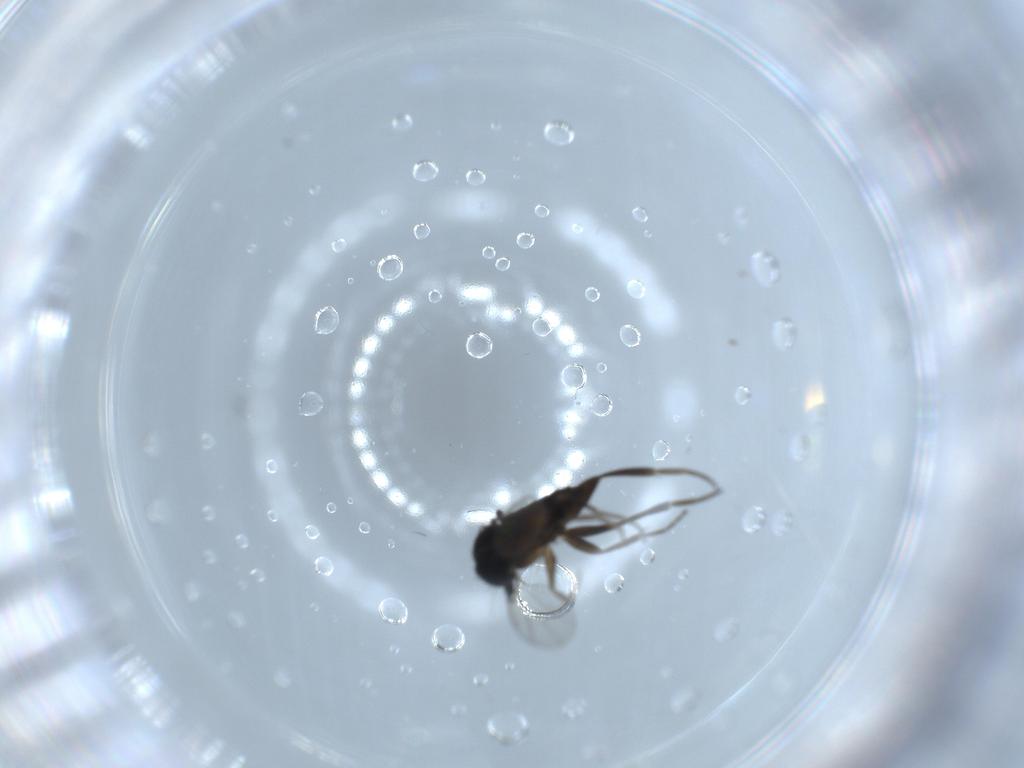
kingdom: Animalia
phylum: Arthropoda
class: Insecta
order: Diptera
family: Phoridae
